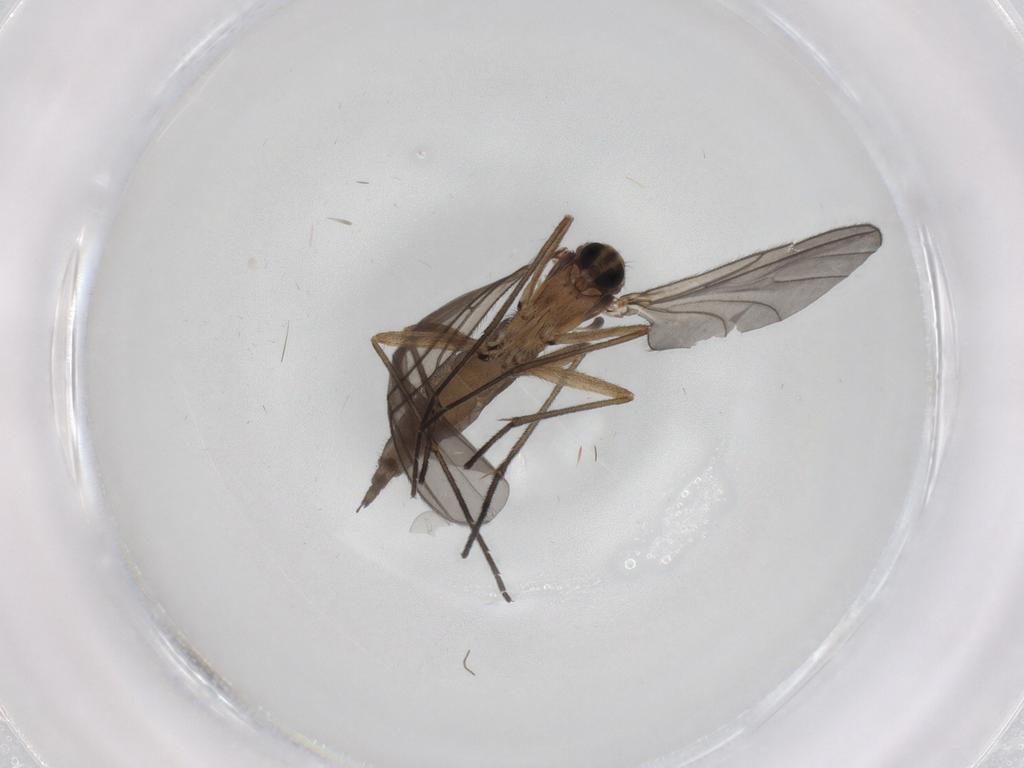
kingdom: Animalia
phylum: Arthropoda
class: Insecta
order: Diptera
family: Sciaridae
